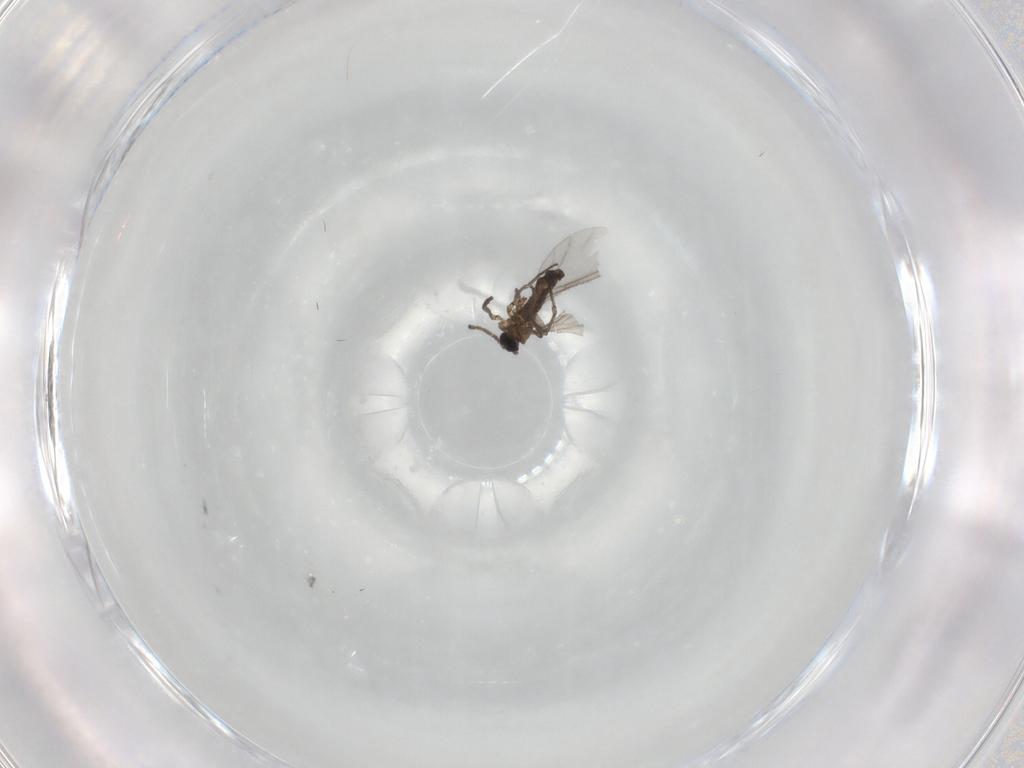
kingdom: Animalia
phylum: Arthropoda
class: Insecta
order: Diptera
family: Sciaridae
